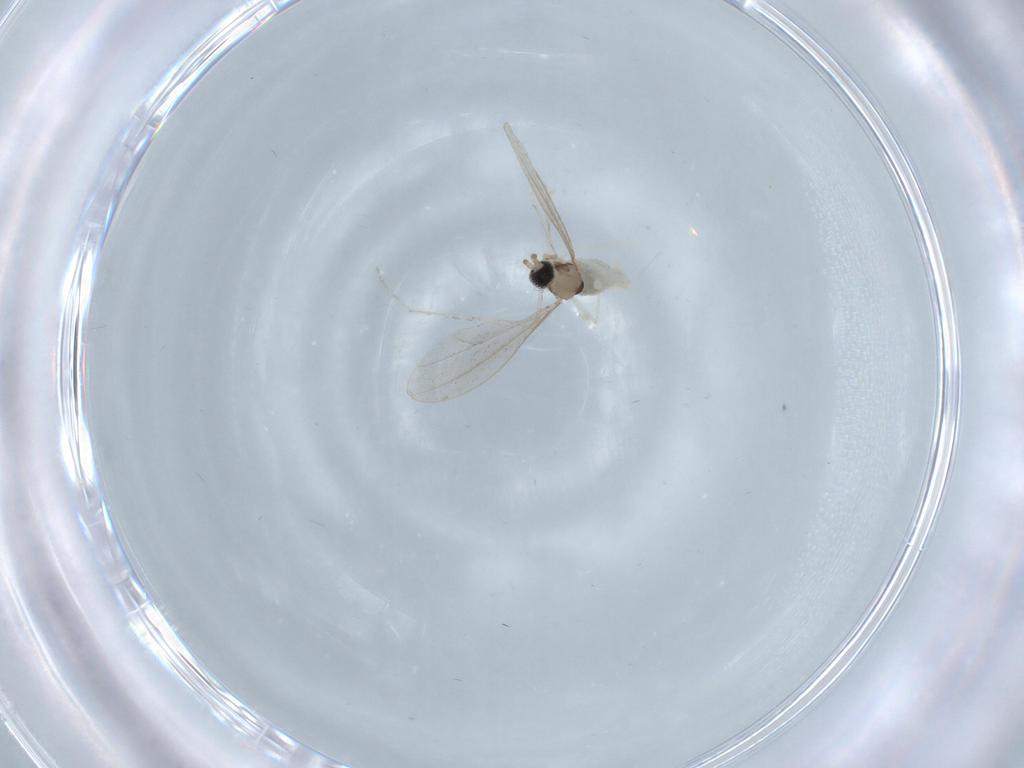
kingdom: Animalia
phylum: Arthropoda
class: Insecta
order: Diptera
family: Cecidomyiidae
